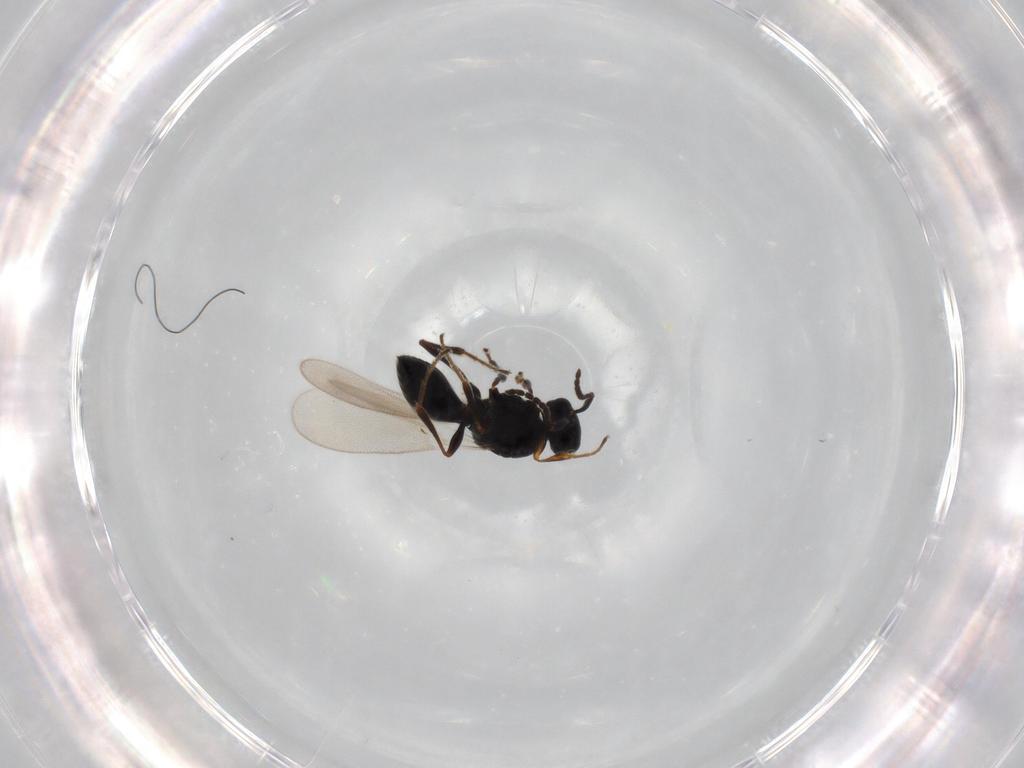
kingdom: Animalia
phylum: Arthropoda
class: Insecta
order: Diptera
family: Mythicomyiidae
